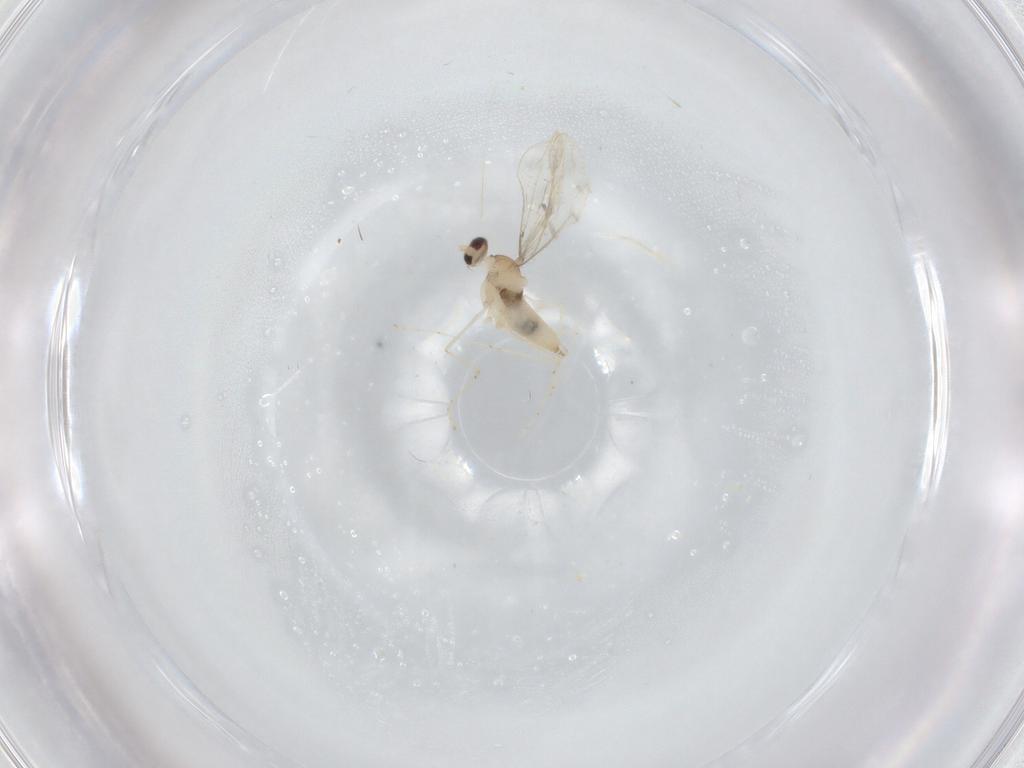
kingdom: Animalia
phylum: Arthropoda
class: Insecta
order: Diptera
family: Cecidomyiidae
